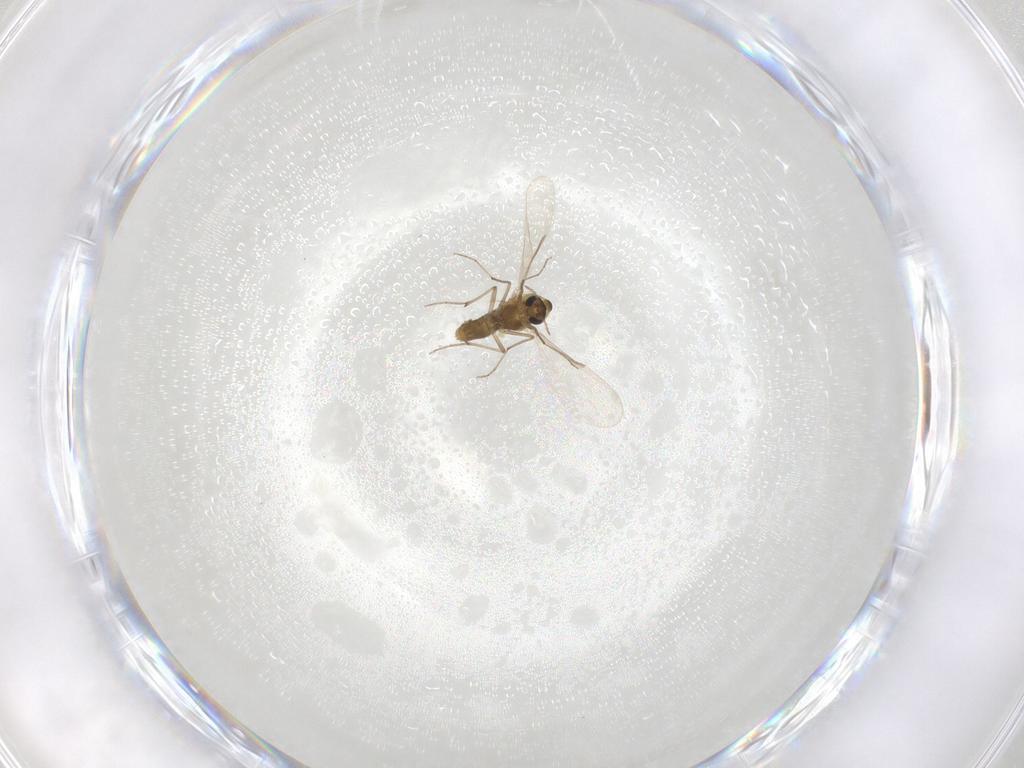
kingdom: Animalia
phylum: Arthropoda
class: Insecta
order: Diptera
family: Chironomidae
